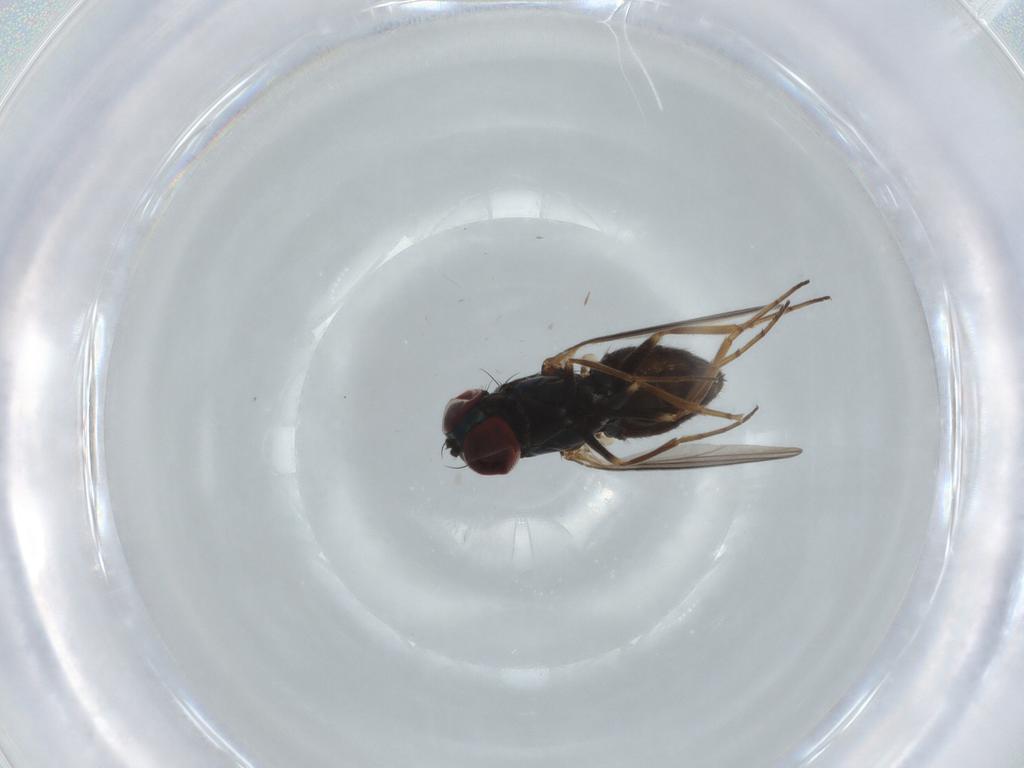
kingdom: Animalia
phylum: Arthropoda
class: Insecta
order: Diptera
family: Dolichopodidae
